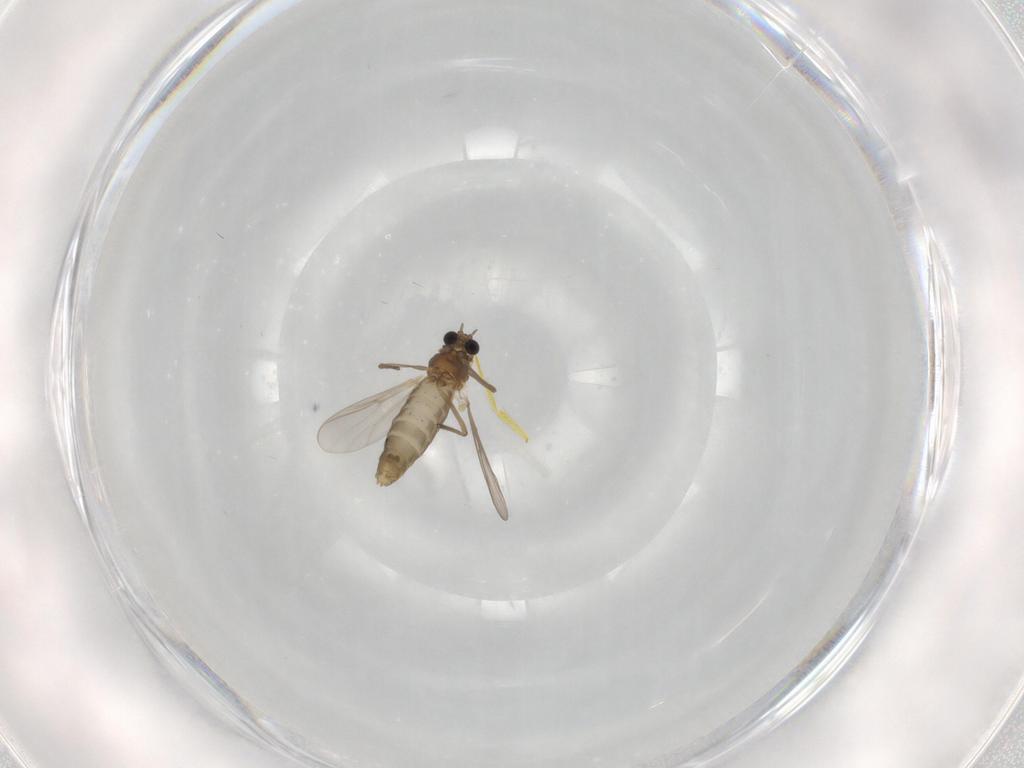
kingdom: Animalia
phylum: Arthropoda
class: Insecta
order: Diptera
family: Chironomidae
